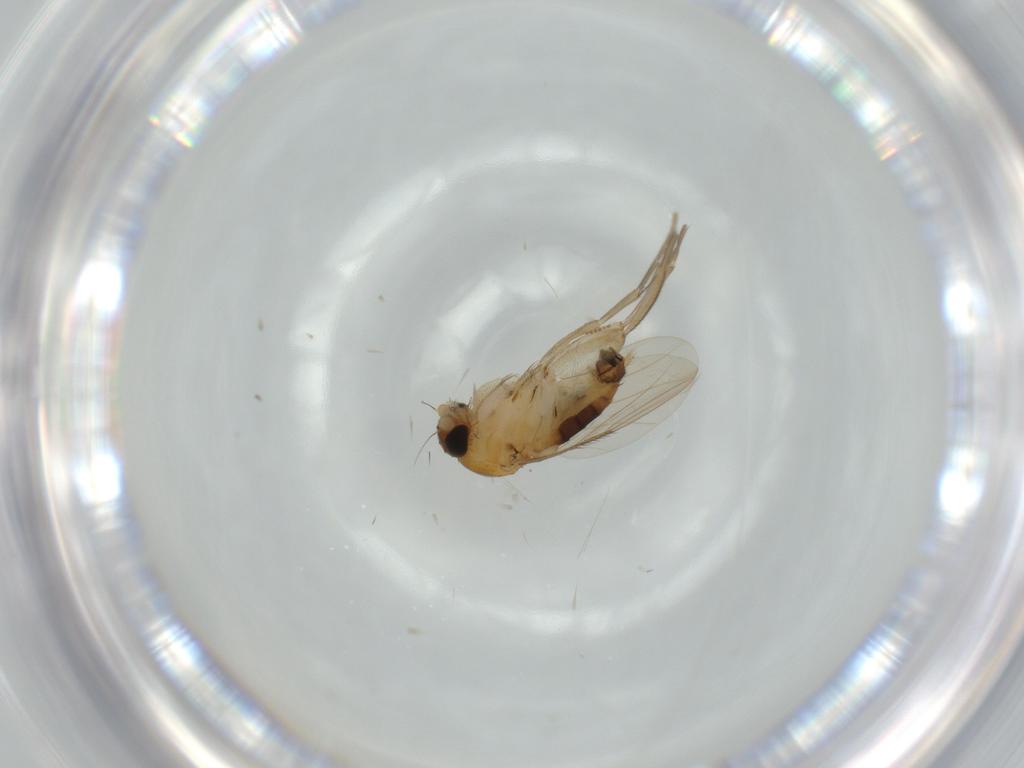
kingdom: Animalia
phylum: Arthropoda
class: Insecta
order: Diptera
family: Phoridae
